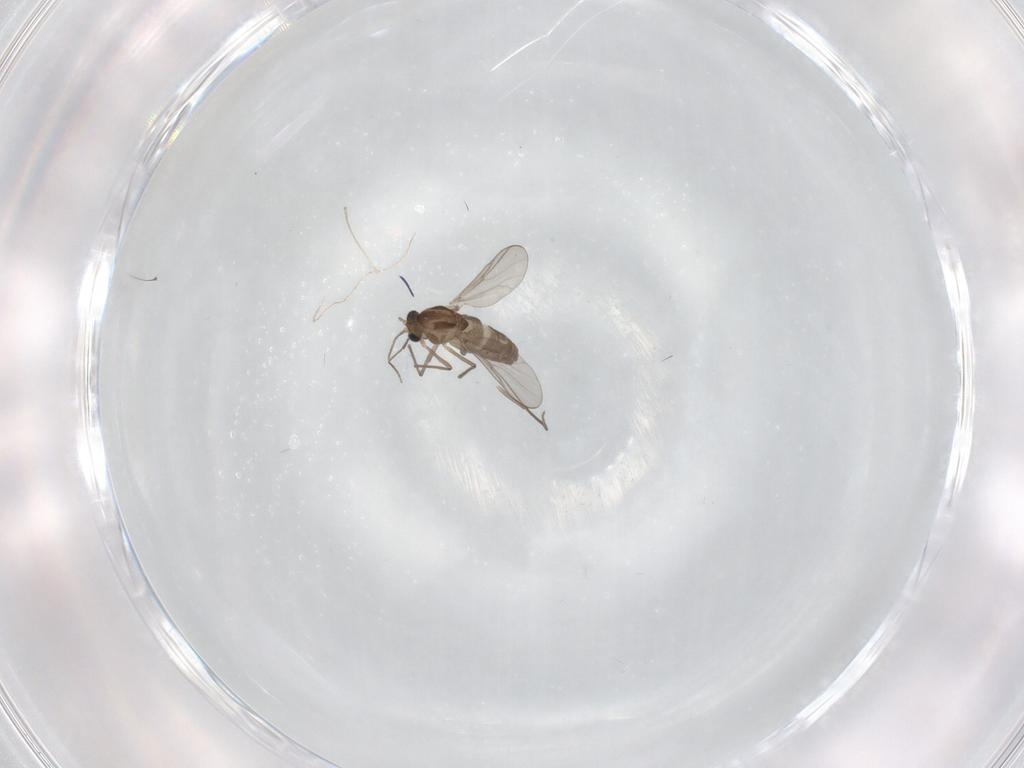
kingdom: Animalia
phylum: Arthropoda
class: Insecta
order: Diptera
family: Chironomidae
